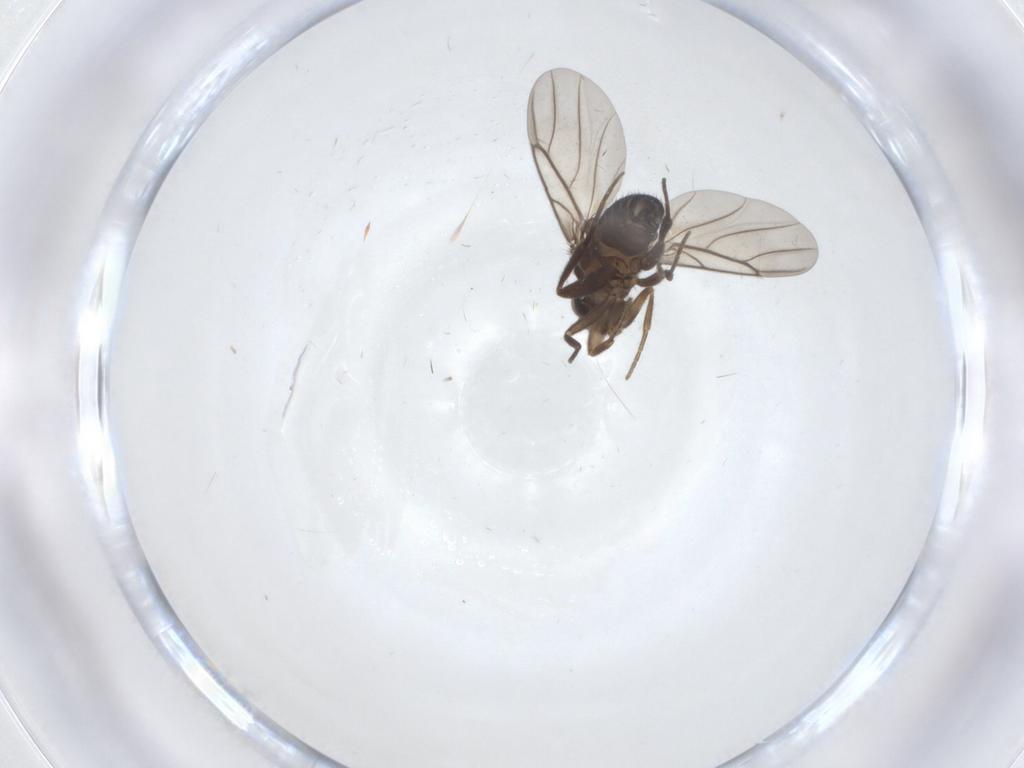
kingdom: Animalia
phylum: Arthropoda
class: Insecta
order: Diptera
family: Phoridae
